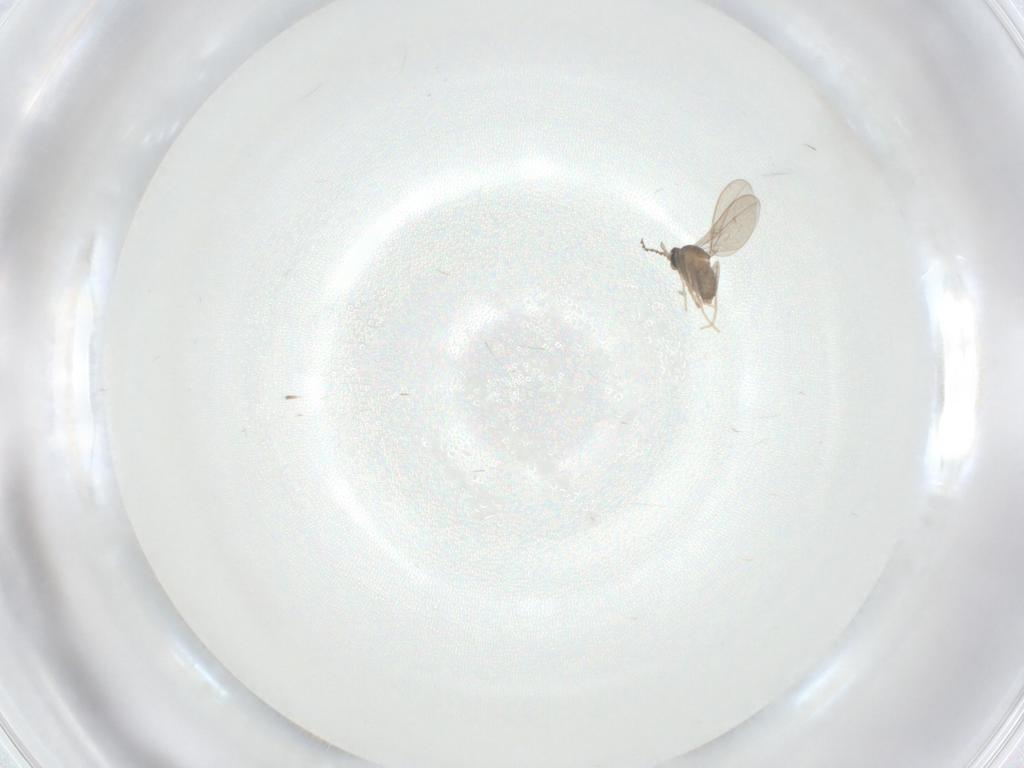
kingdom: Animalia
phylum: Arthropoda
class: Insecta
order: Diptera
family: Cecidomyiidae
